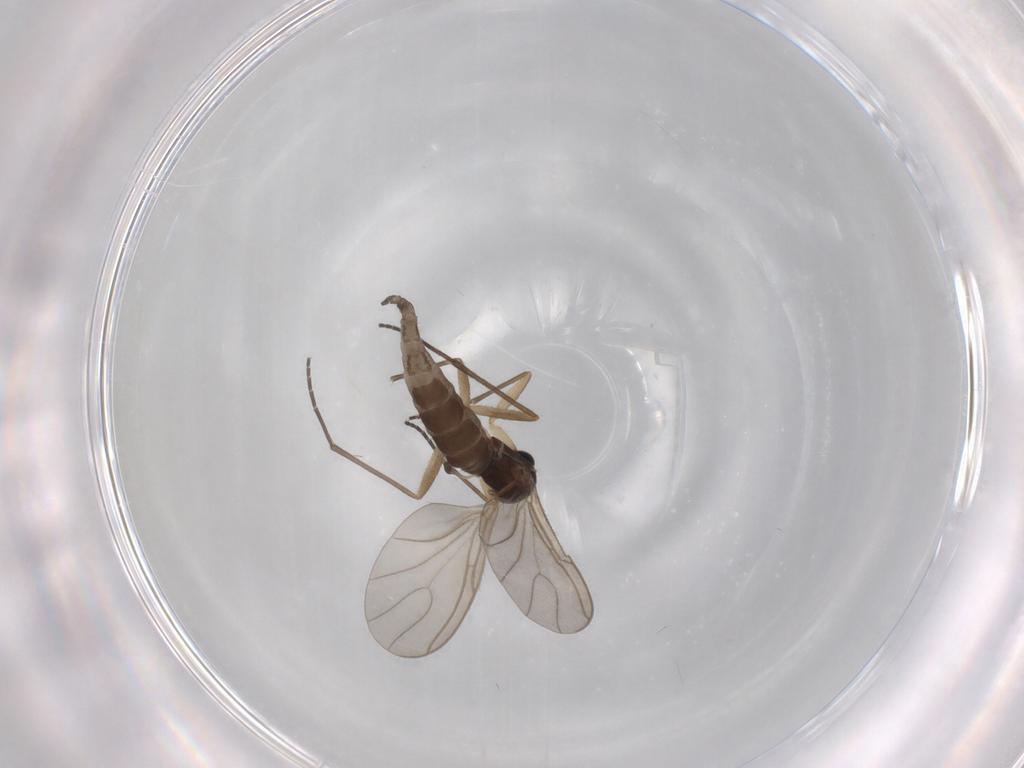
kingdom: Animalia
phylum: Arthropoda
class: Insecta
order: Diptera
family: Sciaridae
